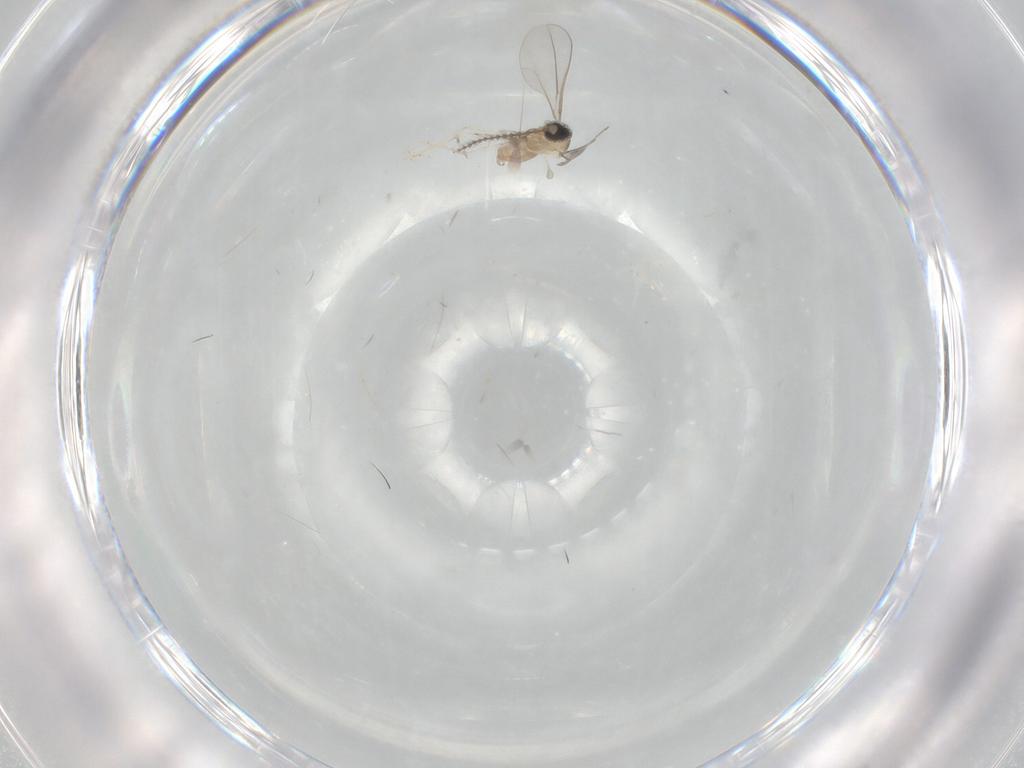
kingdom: Animalia
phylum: Arthropoda
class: Insecta
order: Diptera
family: Cecidomyiidae
